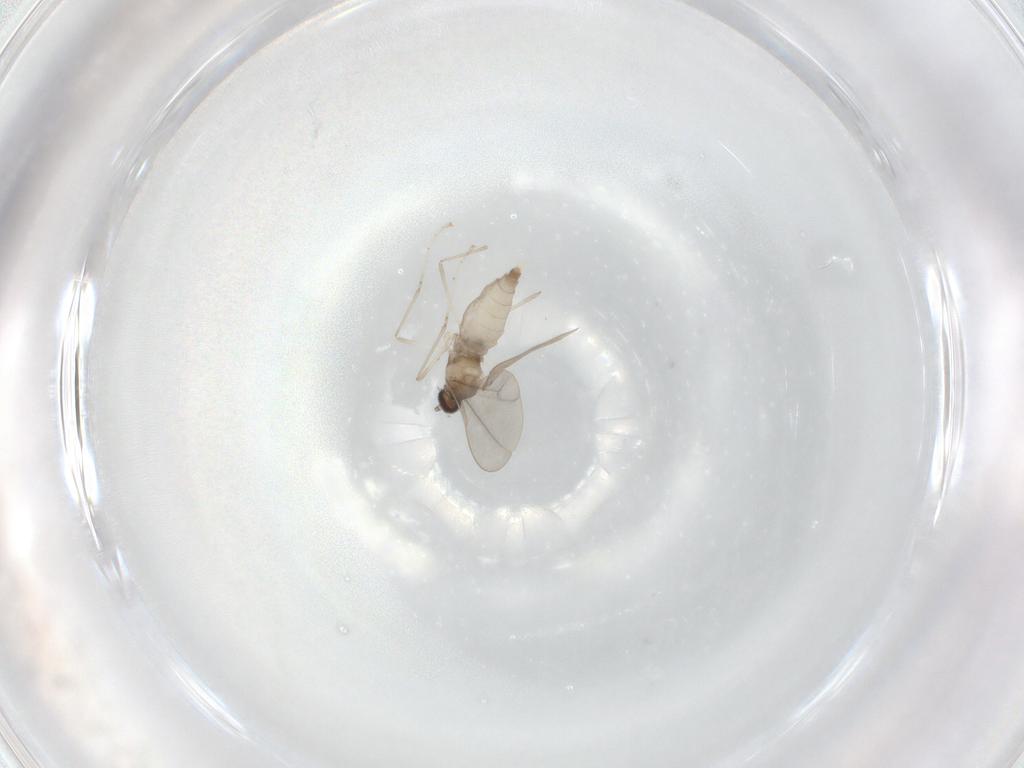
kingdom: Animalia
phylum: Arthropoda
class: Insecta
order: Diptera
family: Cecidomyiidae
